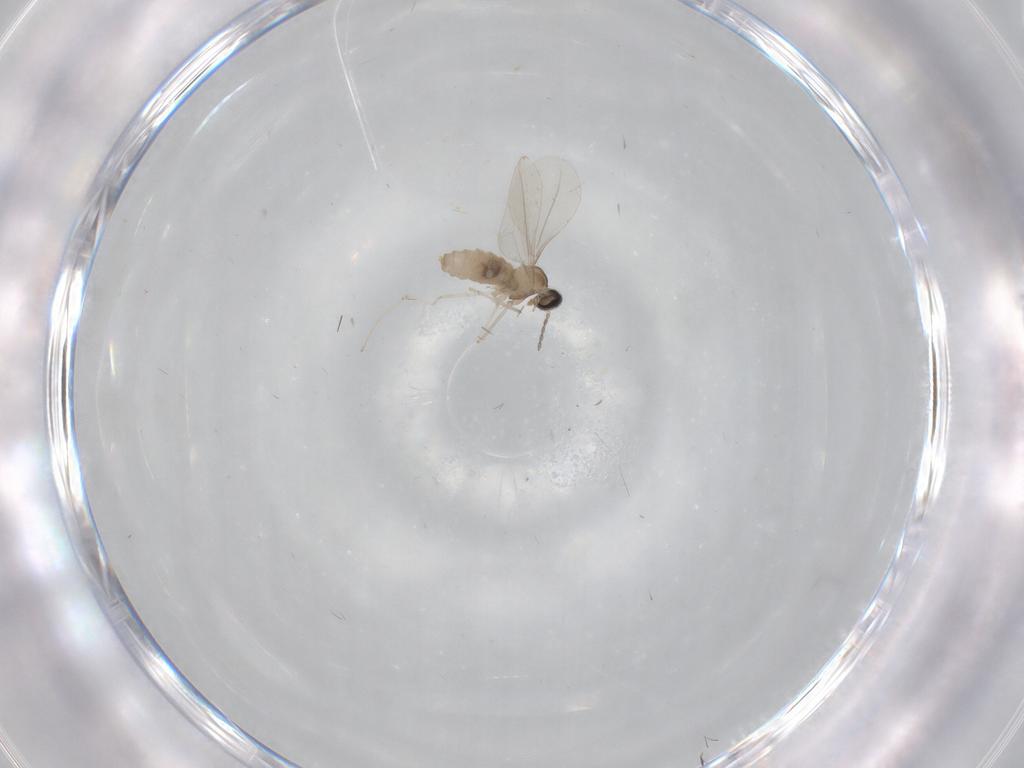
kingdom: Animalia
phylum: Arthropoda
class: Insecta
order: Diptera
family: Cecidomyiidae
